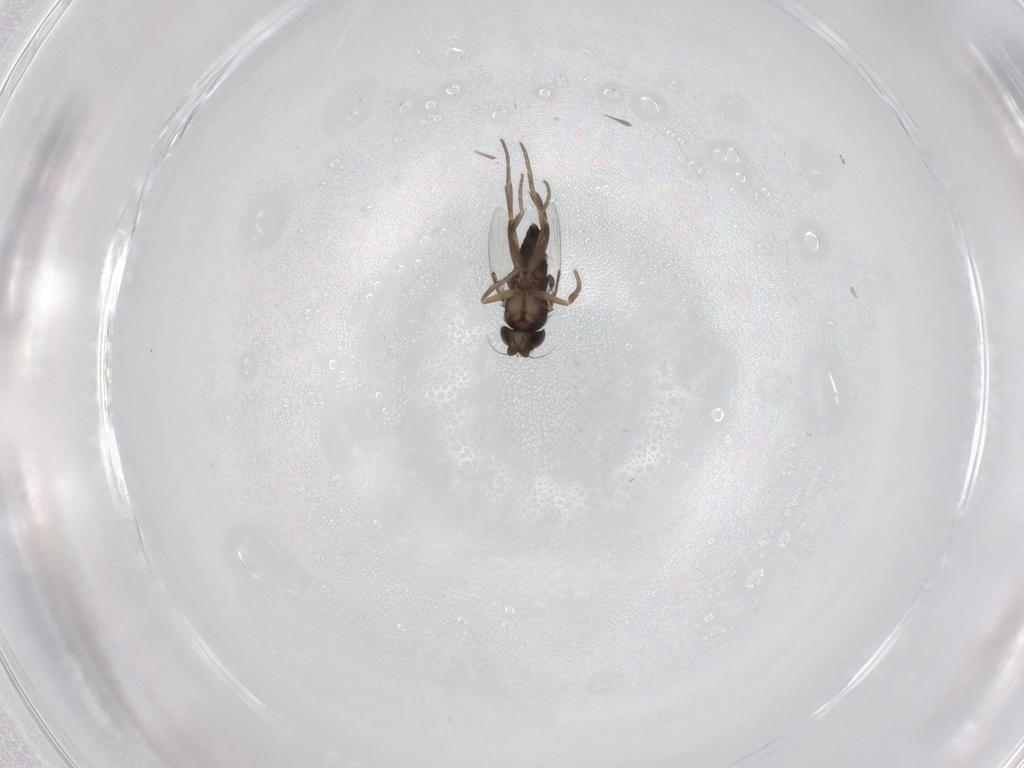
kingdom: Animalia
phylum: Arthropoda
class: Insecta
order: Diptera
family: Phoridae
